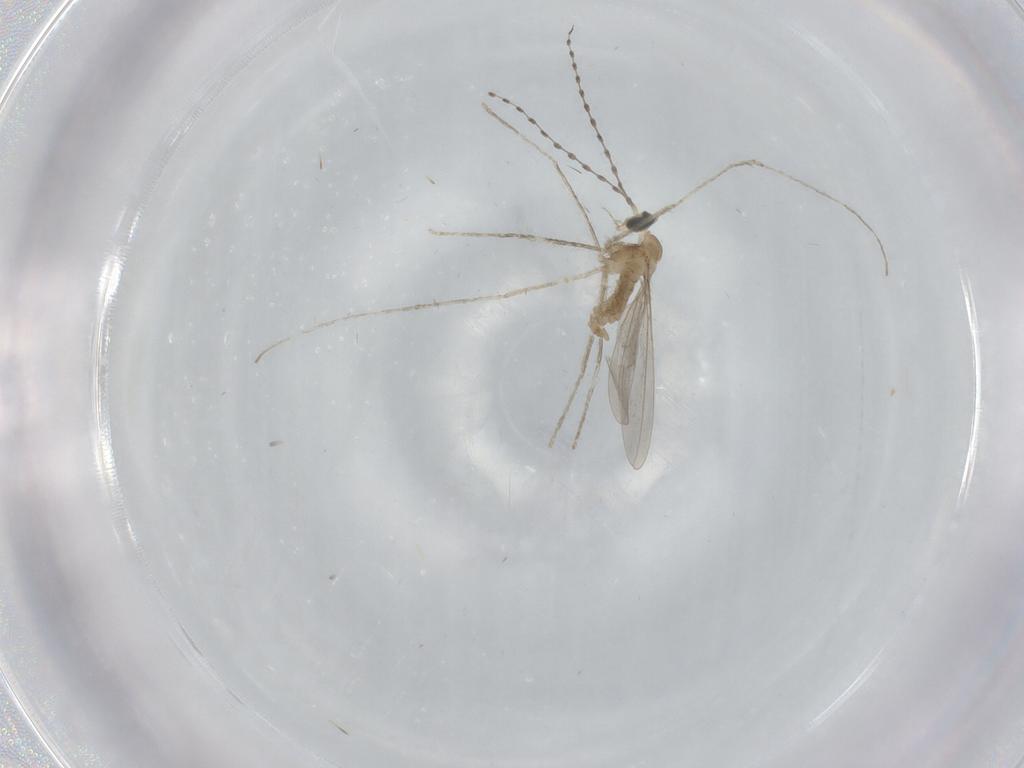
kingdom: Animalia
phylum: Arthropoda
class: Insecta
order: Diptera
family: Cecidomyiidae
